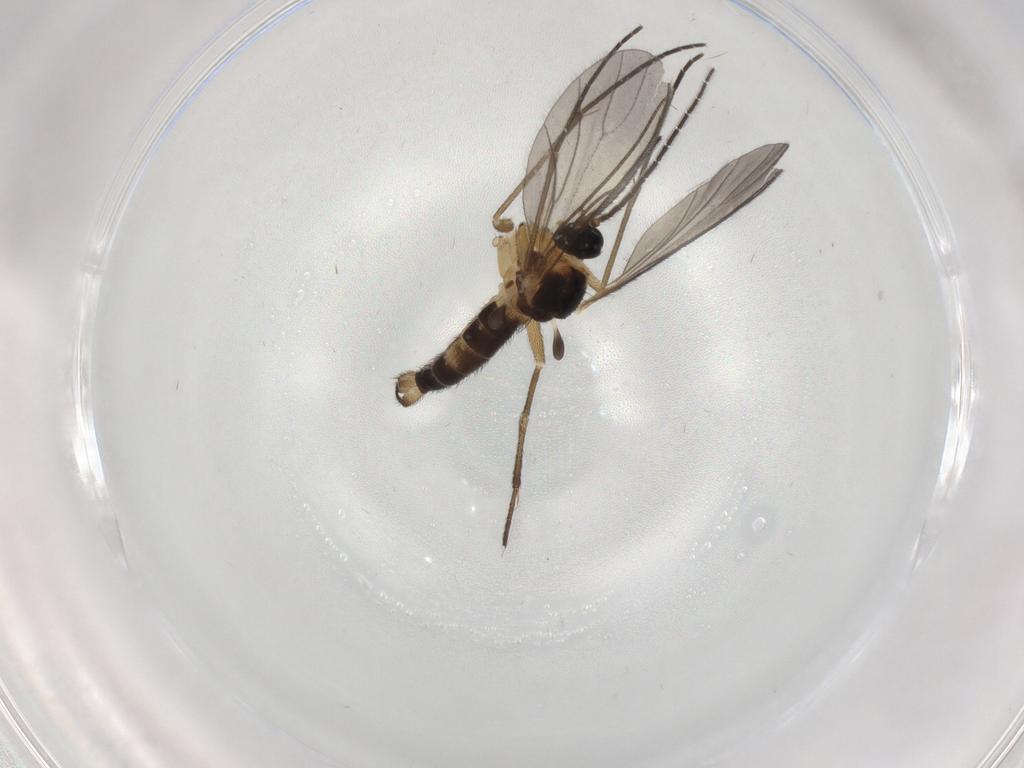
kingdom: Animalia
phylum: Arthropoda
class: Insecta
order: Diptera
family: Sciaridae
